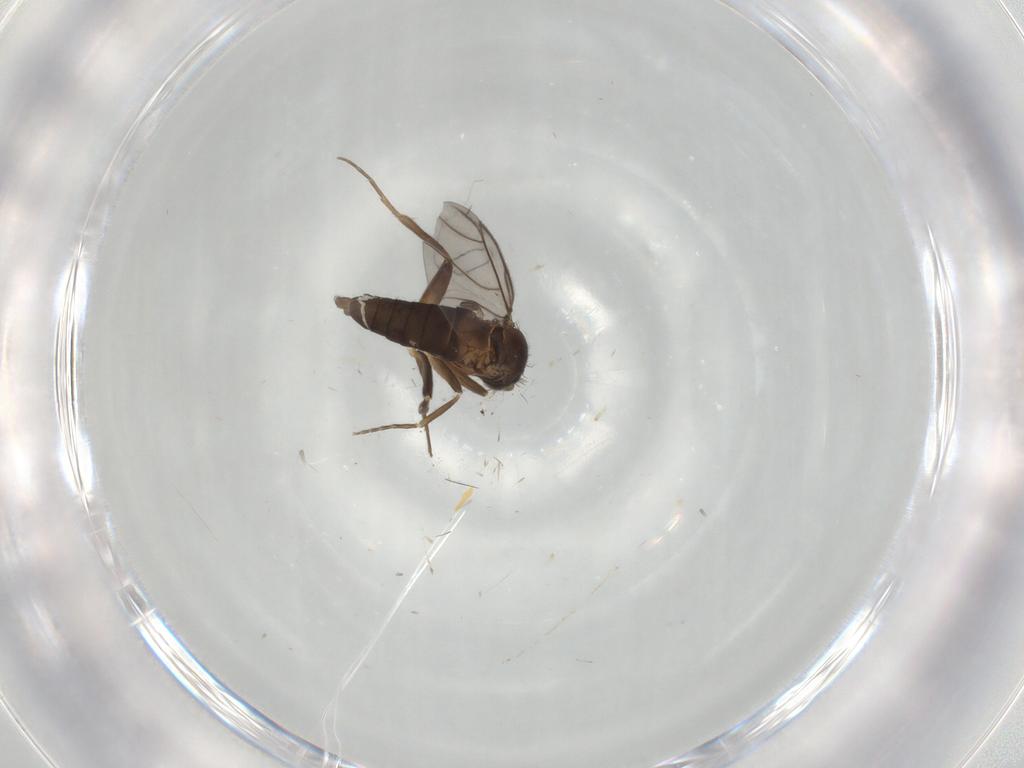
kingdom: Animalia
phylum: Arthropoda
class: Insecta
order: Diptera
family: Cecidomyiidae
